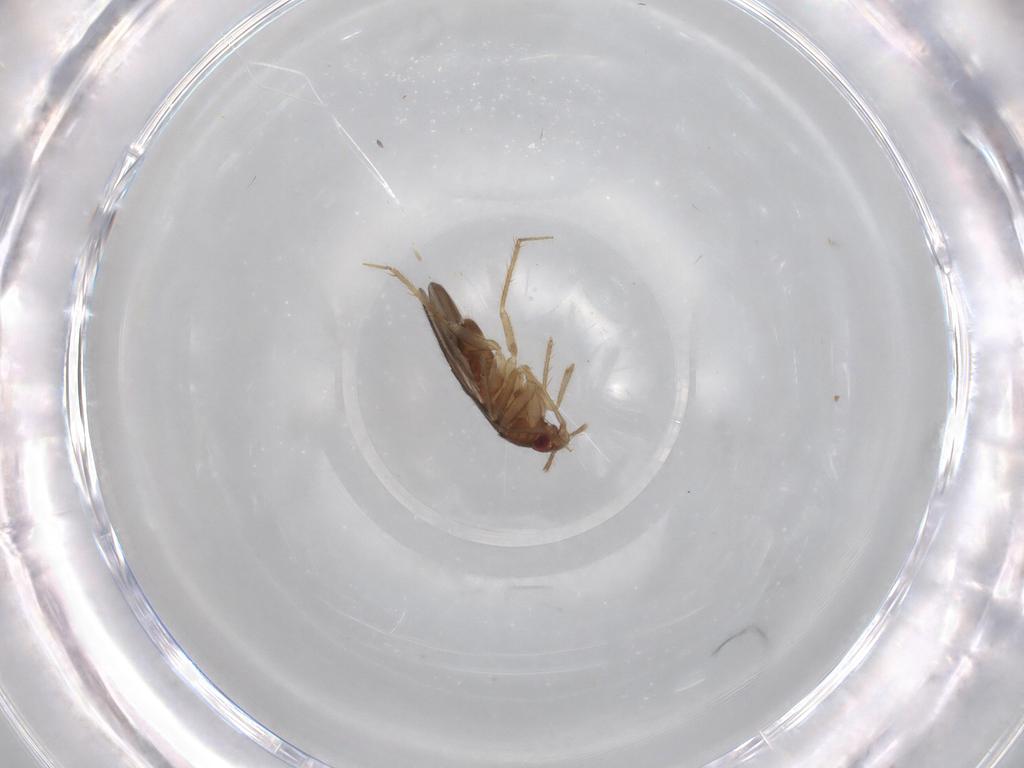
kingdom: Animalia
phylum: Arthropoda
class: Insecta
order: Hemiptera
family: Ceratocombidae
